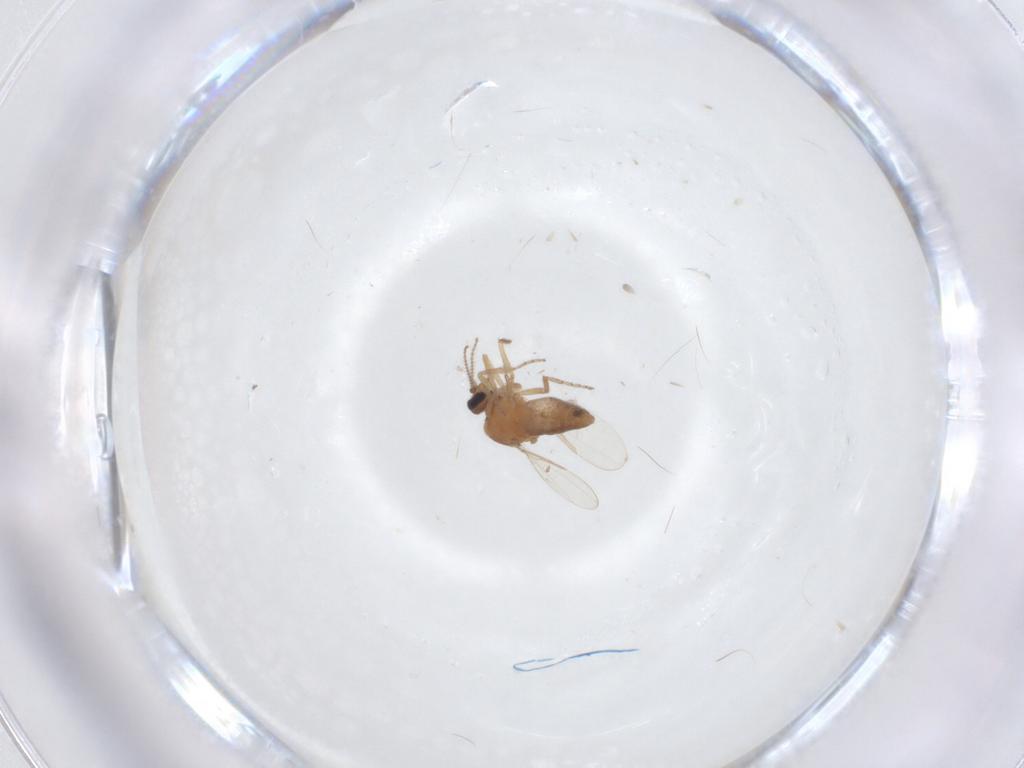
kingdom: Animalia
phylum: Arthropoda
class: Insecta
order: Diptera
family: Ceratopogonidae
